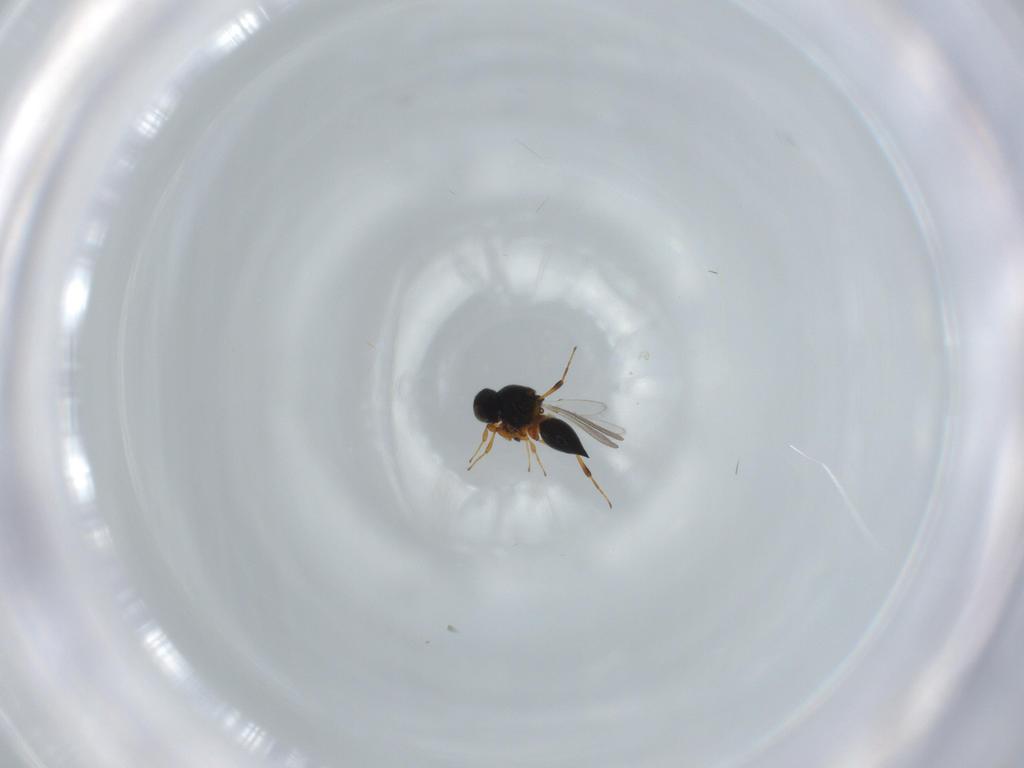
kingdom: Animalia
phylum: Arthropoda
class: Insecta
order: Hymenoptera
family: Platygastridae
